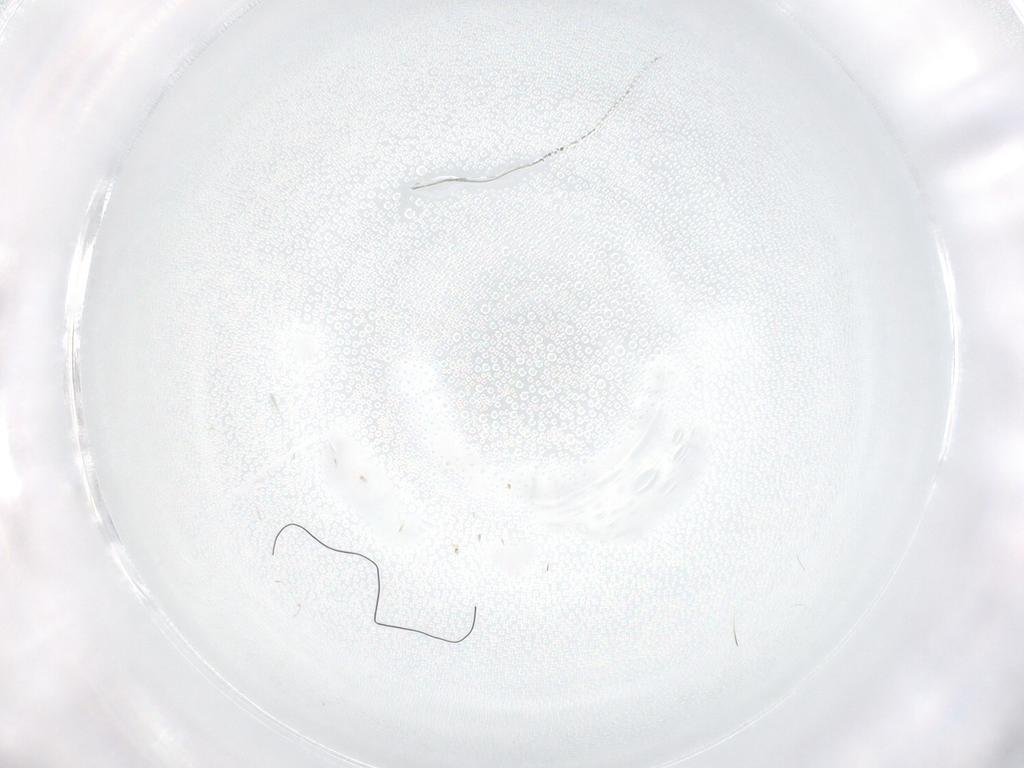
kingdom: Animalia
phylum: Arthropoda
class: Insecta
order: Diptera
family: Chironomidae
